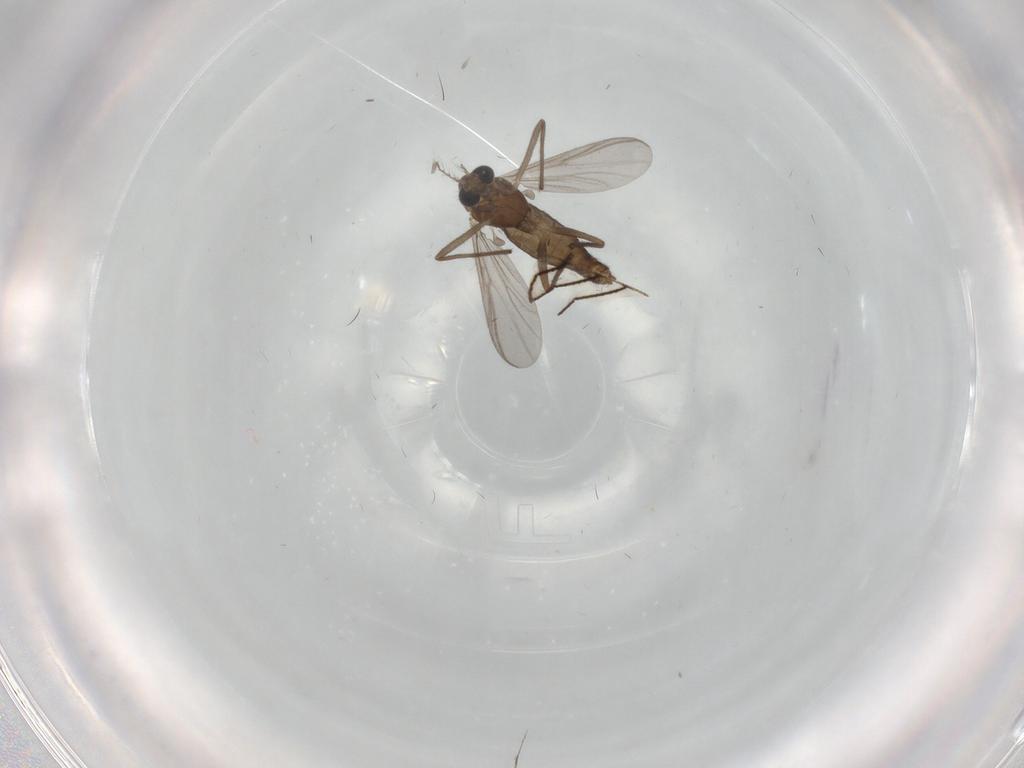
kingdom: Animalia
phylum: Arthropoda
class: Insecta
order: Diptera
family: Chironomidae
